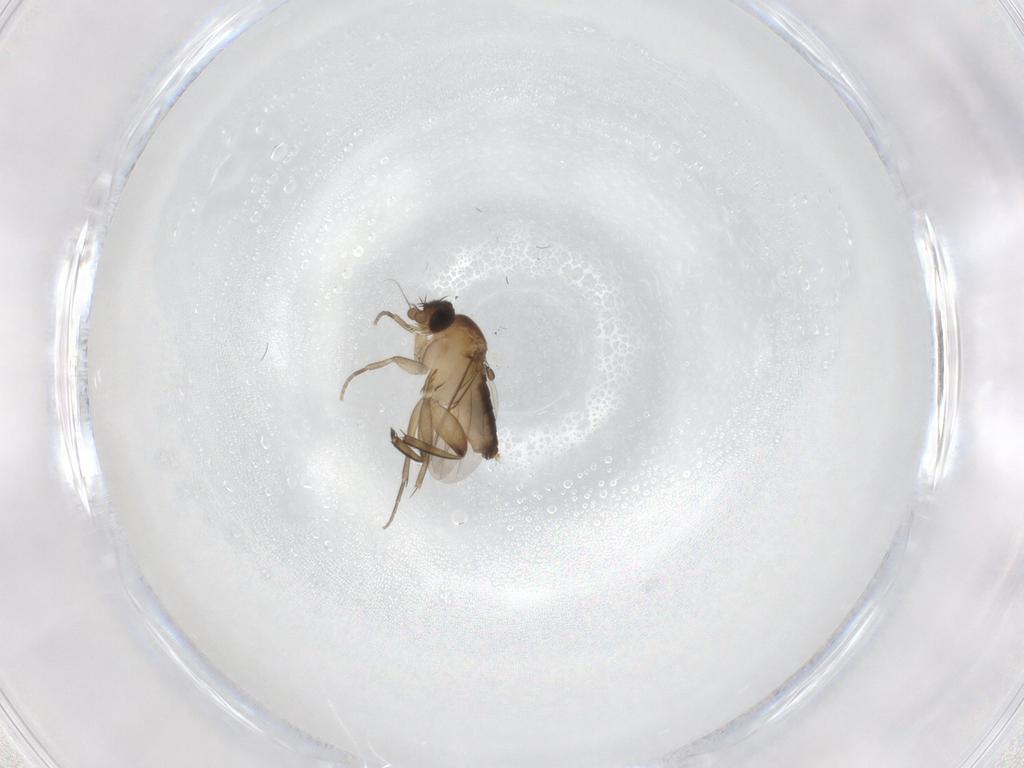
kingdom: Animalia
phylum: Arthropoda
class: Insecta
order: Diptera
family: Phoridae
